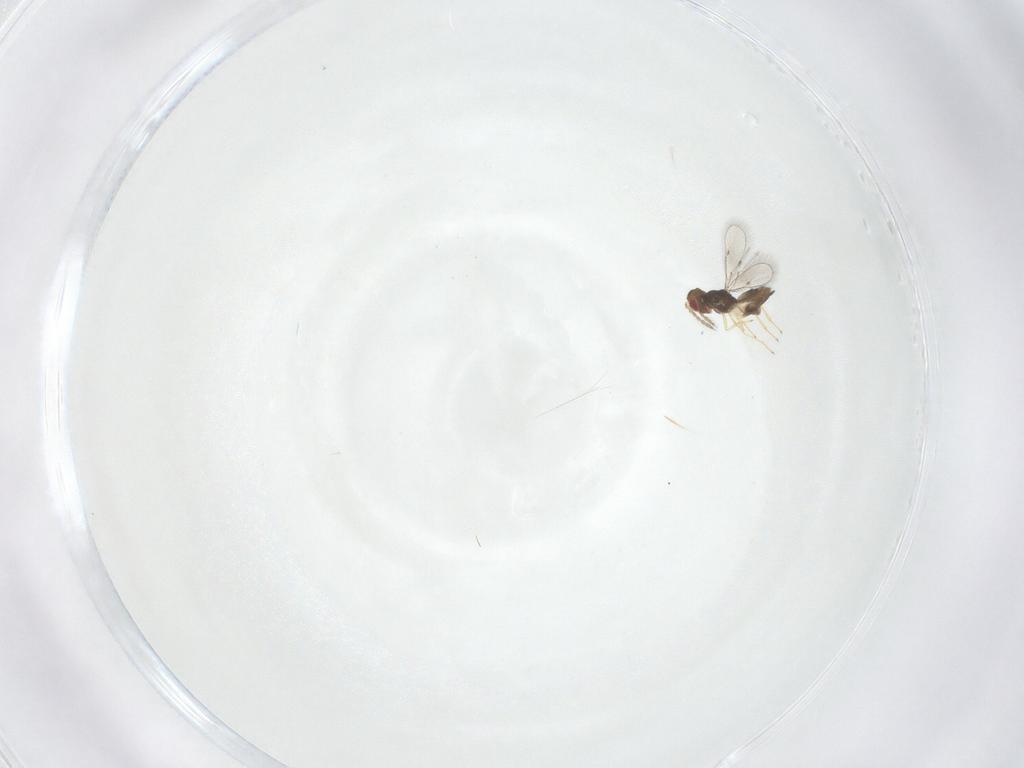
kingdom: Animalia
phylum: Arthropoda
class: Insecta
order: Hymenoptera
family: Eulophidae
